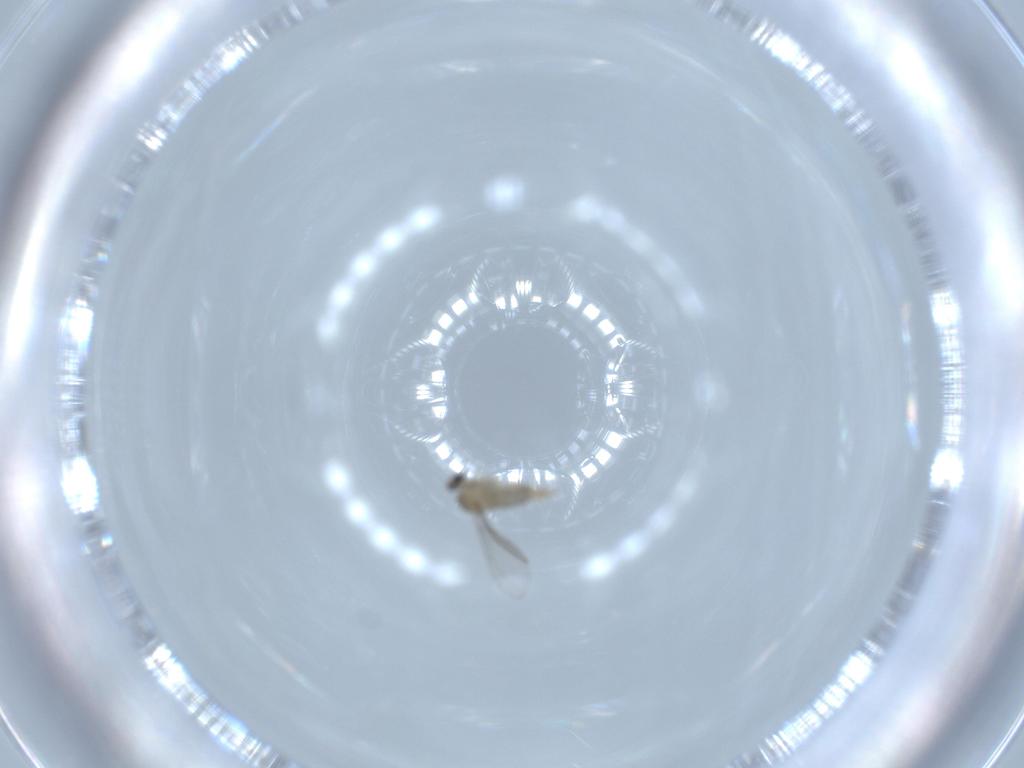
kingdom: Animalia
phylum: Arthropoda
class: Insecta
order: Diptera
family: Cecidomyiidae
